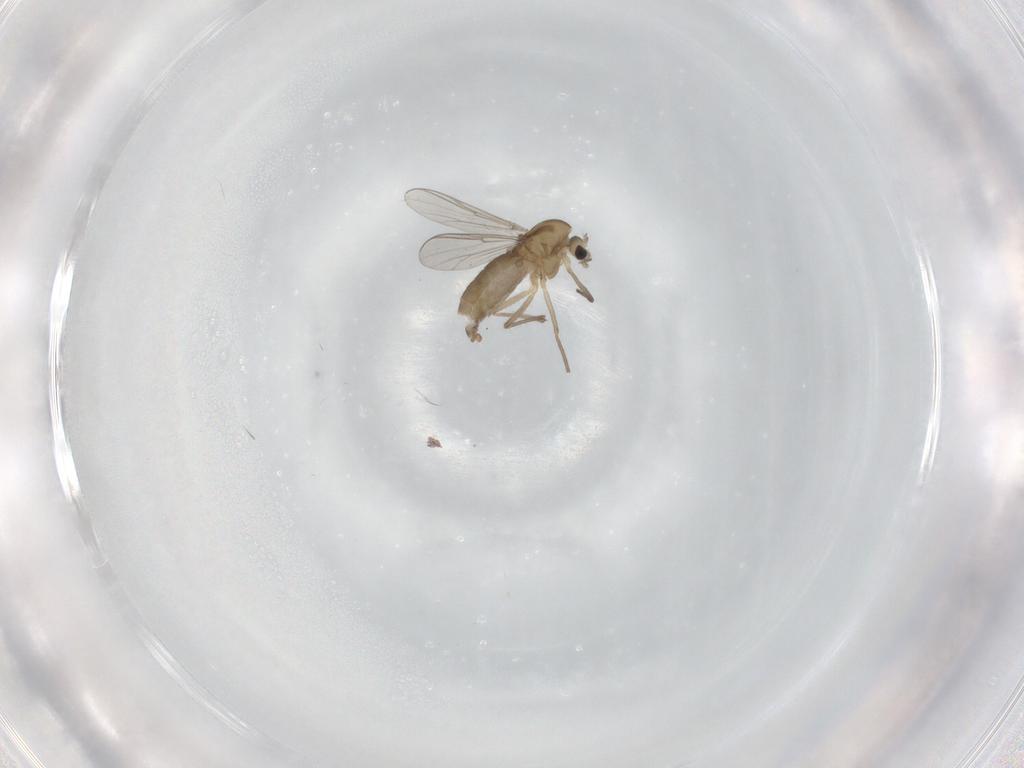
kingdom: Animalia
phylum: Arthropoda
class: Insecta
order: Diptera
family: Chironomidae
